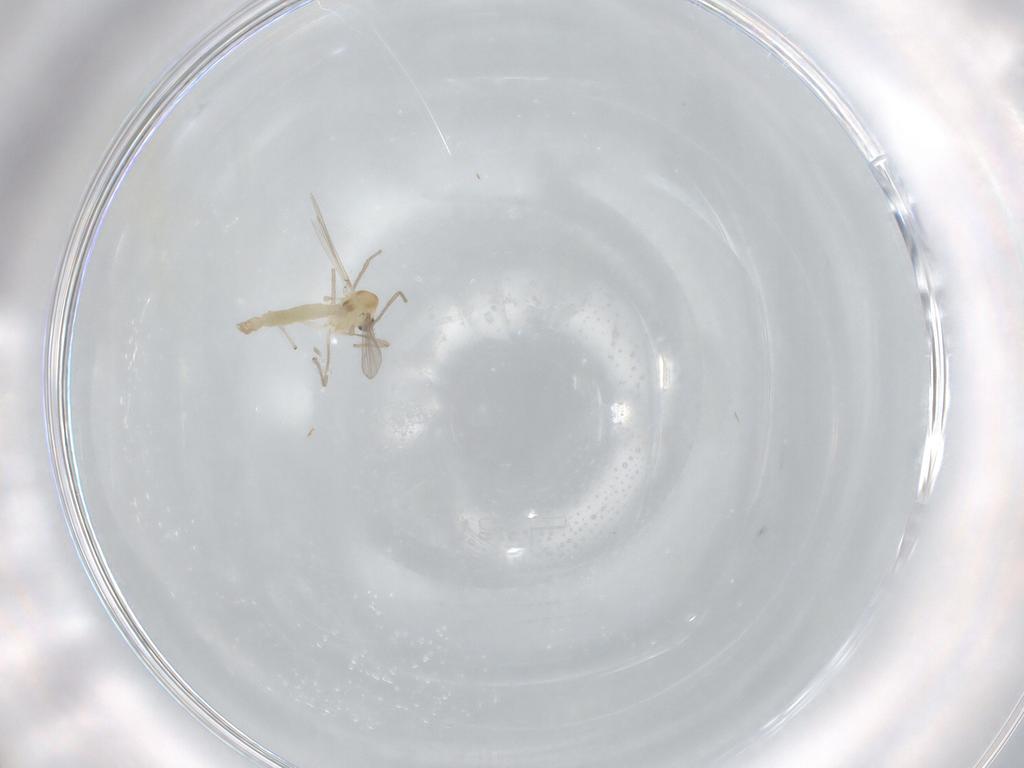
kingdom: Animalia
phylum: Arthropoda
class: Insecta
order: Diptera
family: Chironomidae
